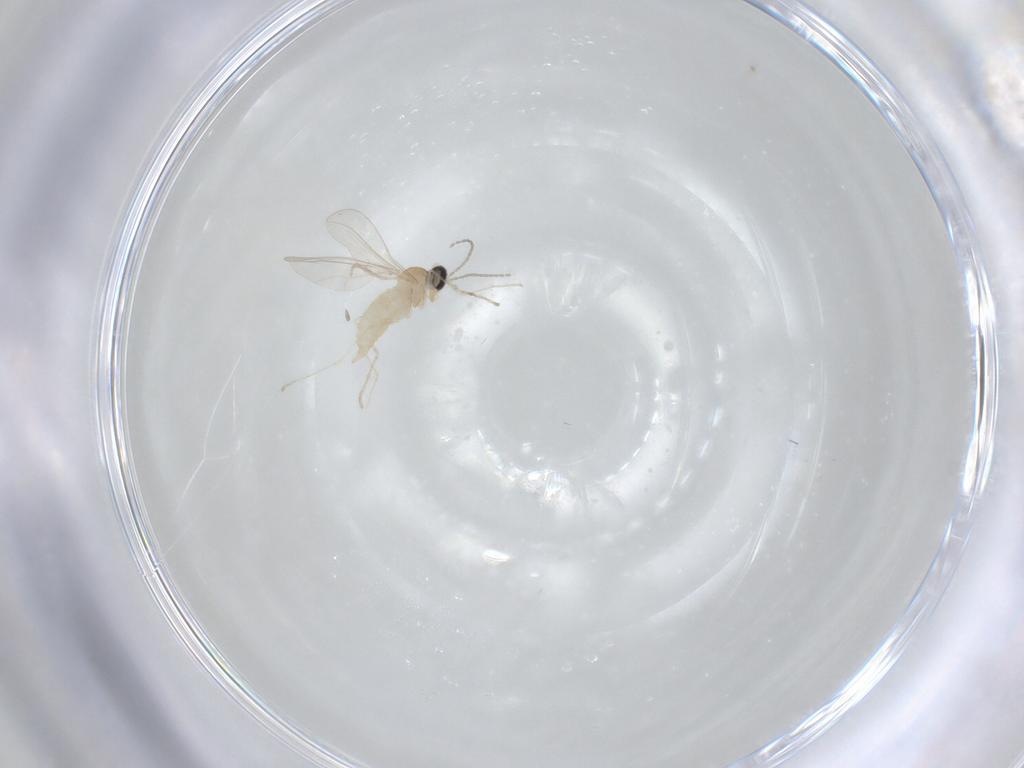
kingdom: Animalia
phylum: Arthropoda
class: Insecta
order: Diptera
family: Cecidomyiidae
